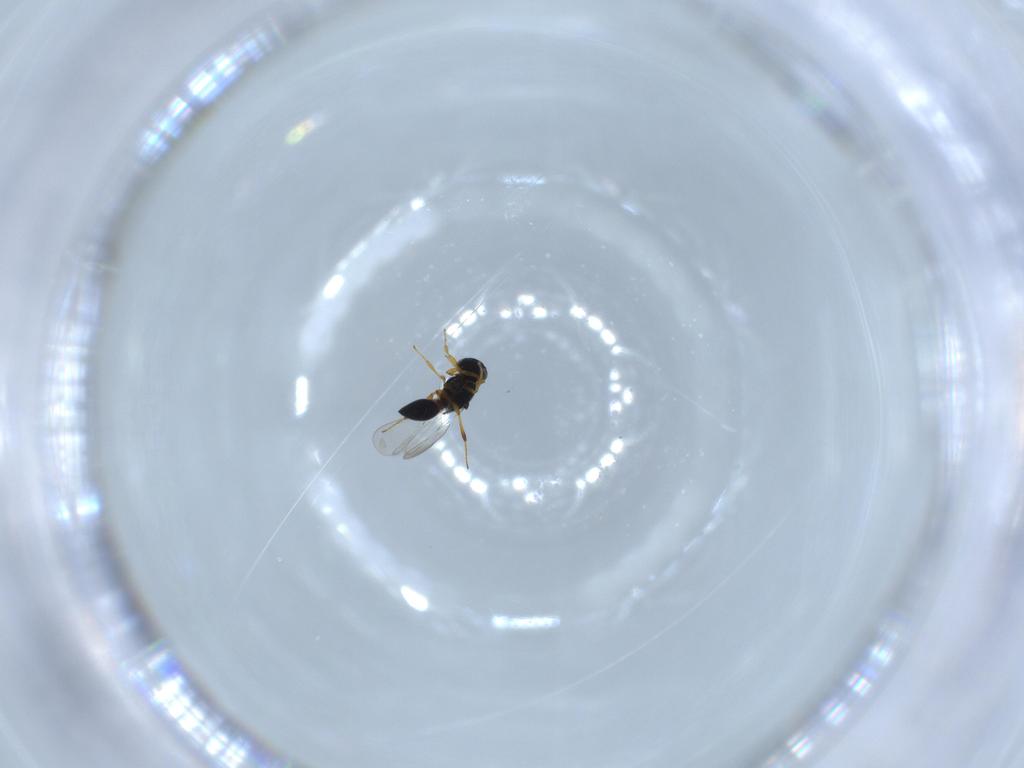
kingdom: Animalia
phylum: Arthropoda
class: Insecta
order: Hymenoptera
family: Platygastridae
